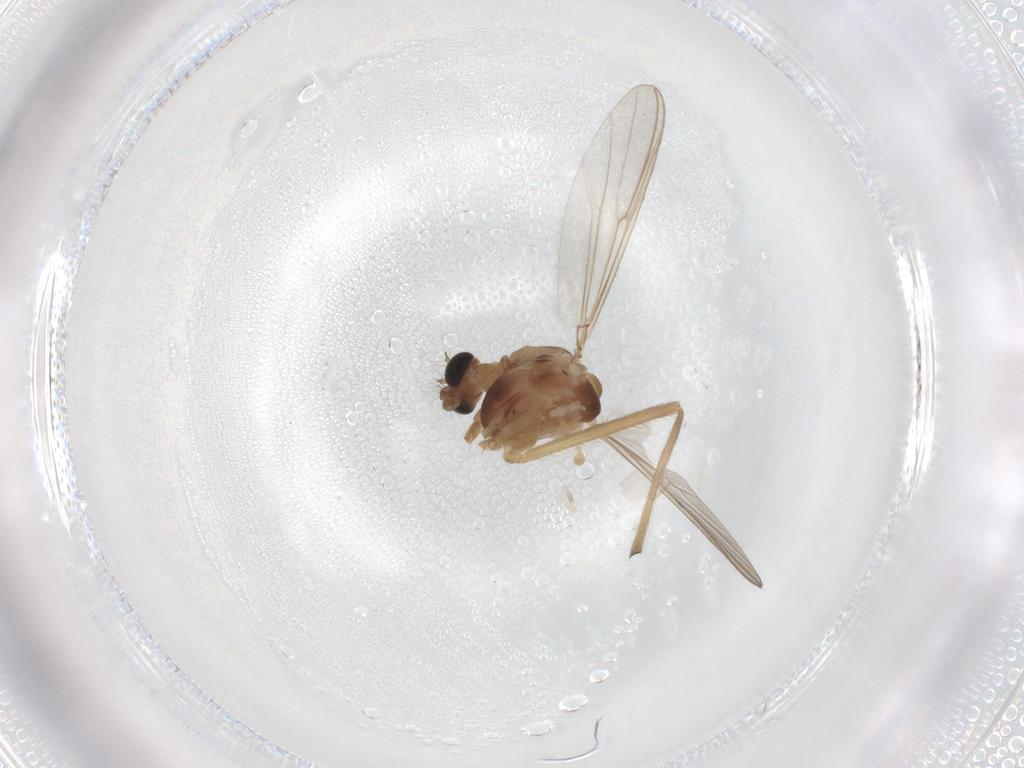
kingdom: Animalia
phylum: Arthropoda
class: Insecta
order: Diptera
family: Chironomidae
